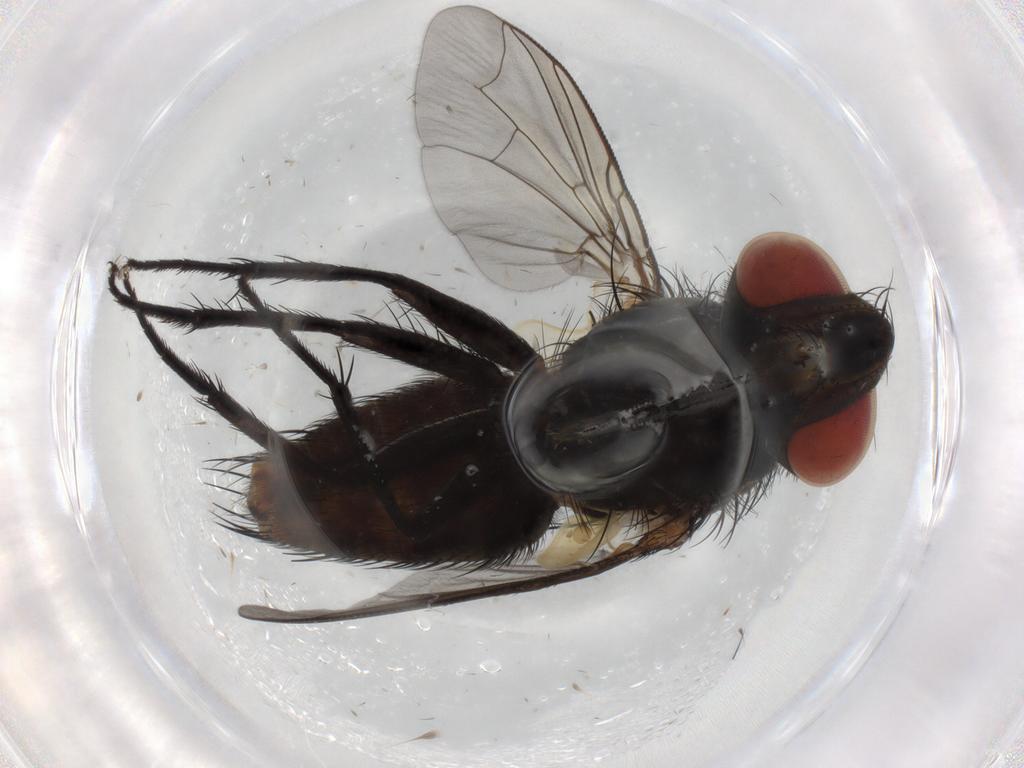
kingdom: Animalia
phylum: Arthropoda
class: Insecta
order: Diptera
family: Sarcophagidae
